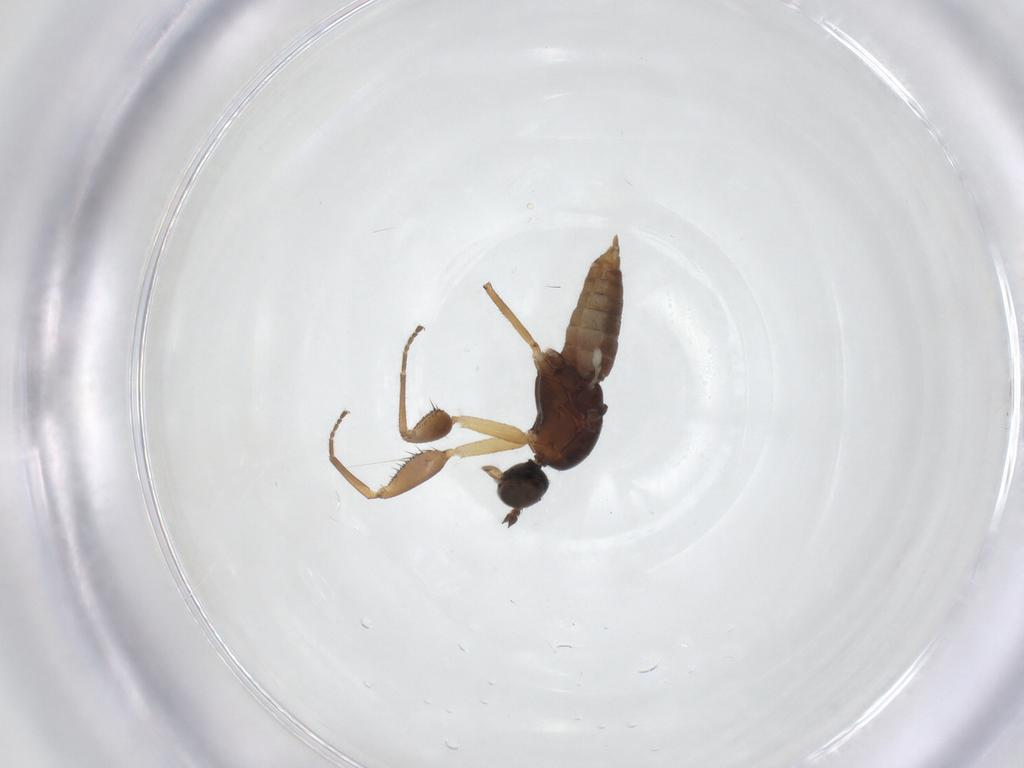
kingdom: Animalia
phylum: Arthropoda
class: Insecta
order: Diptera
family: Empididae
